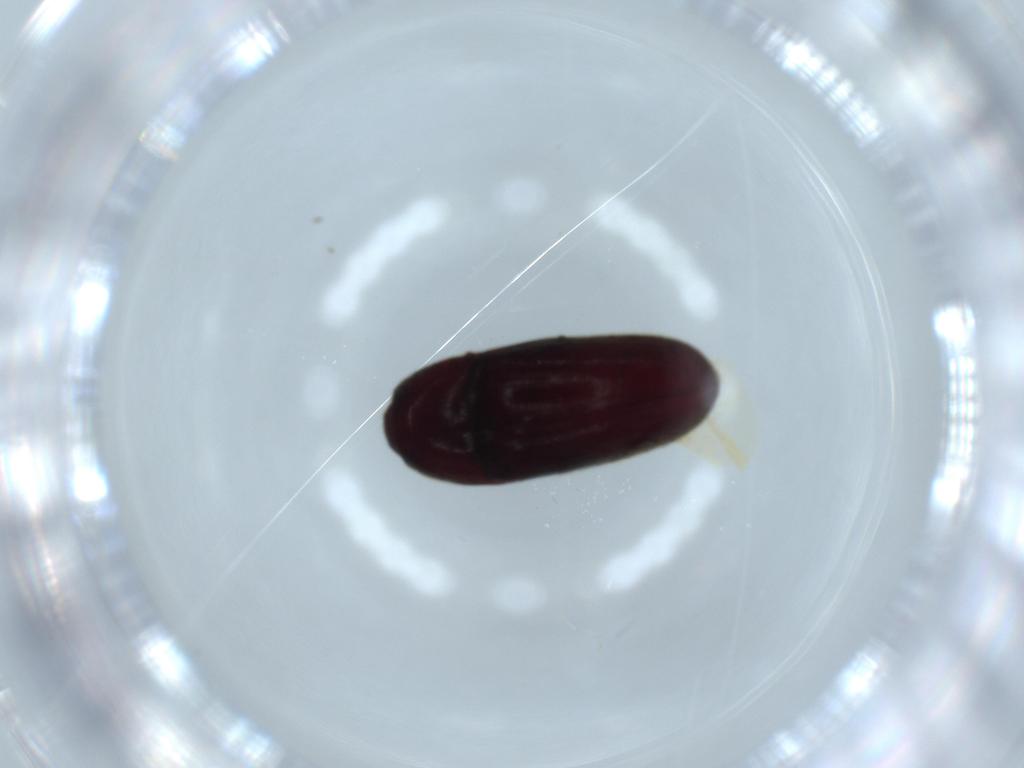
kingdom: Animalia
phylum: Arthropoda
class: Insecta
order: Coleoptera
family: Throscidae
